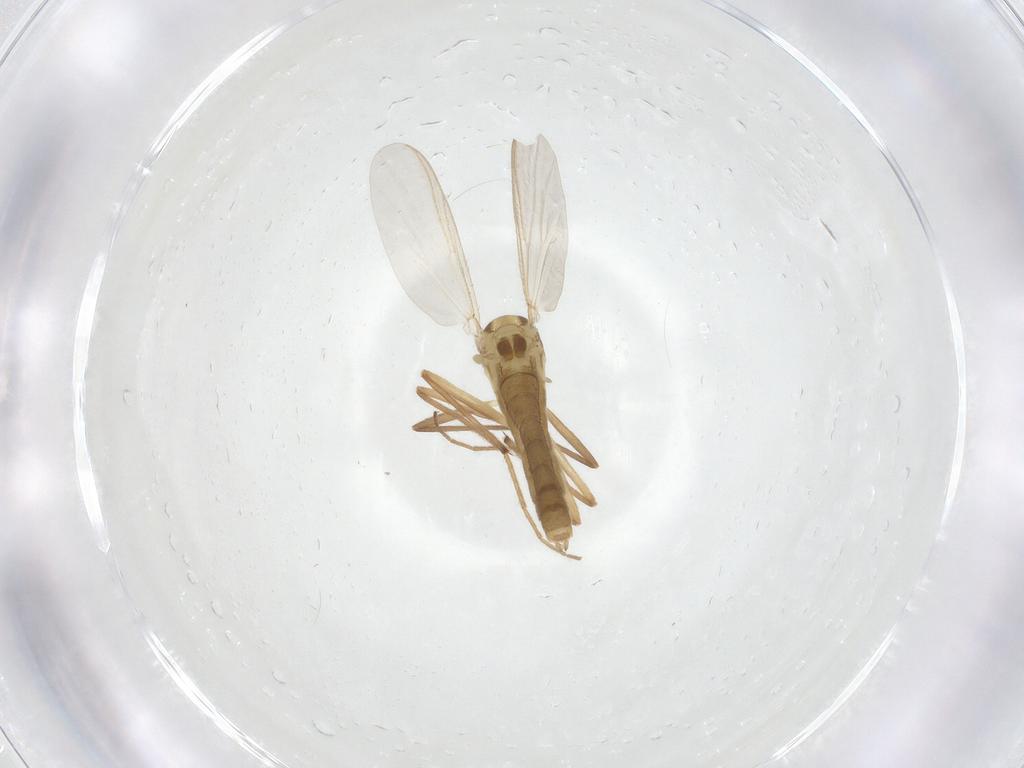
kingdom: Animalia
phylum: Arthropoda
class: Insecta
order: Diptera
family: Chironomidae
